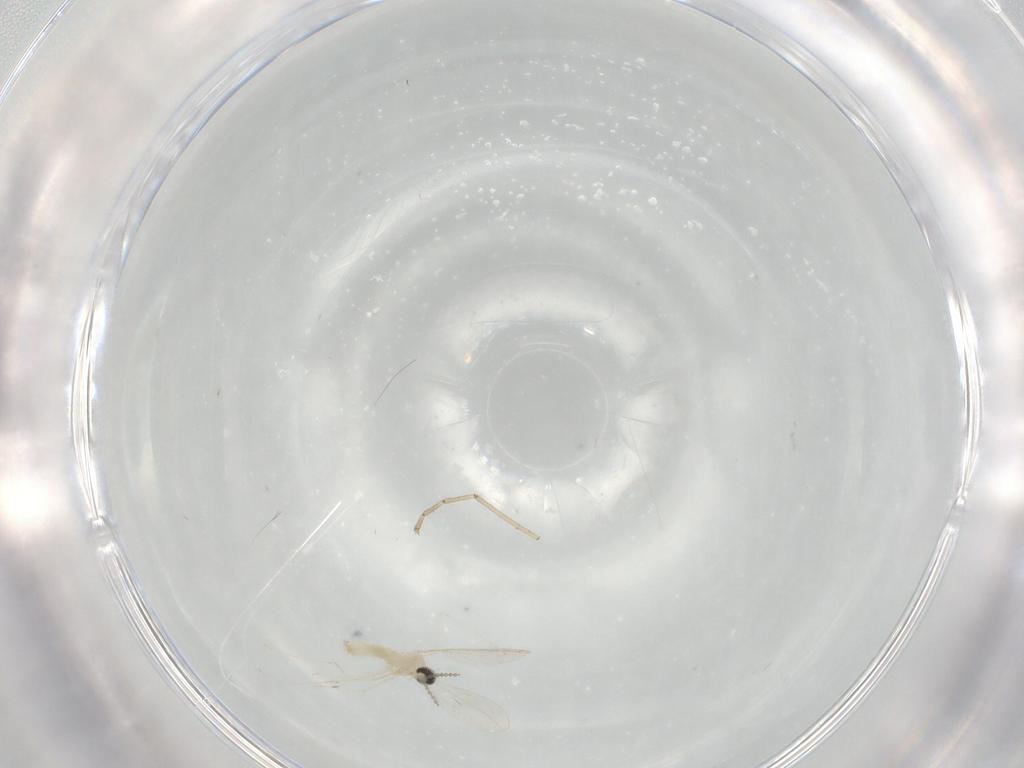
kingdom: Animalia
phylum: Arthropoda
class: Insecta
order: Diptera
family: Cecidomyiidae
